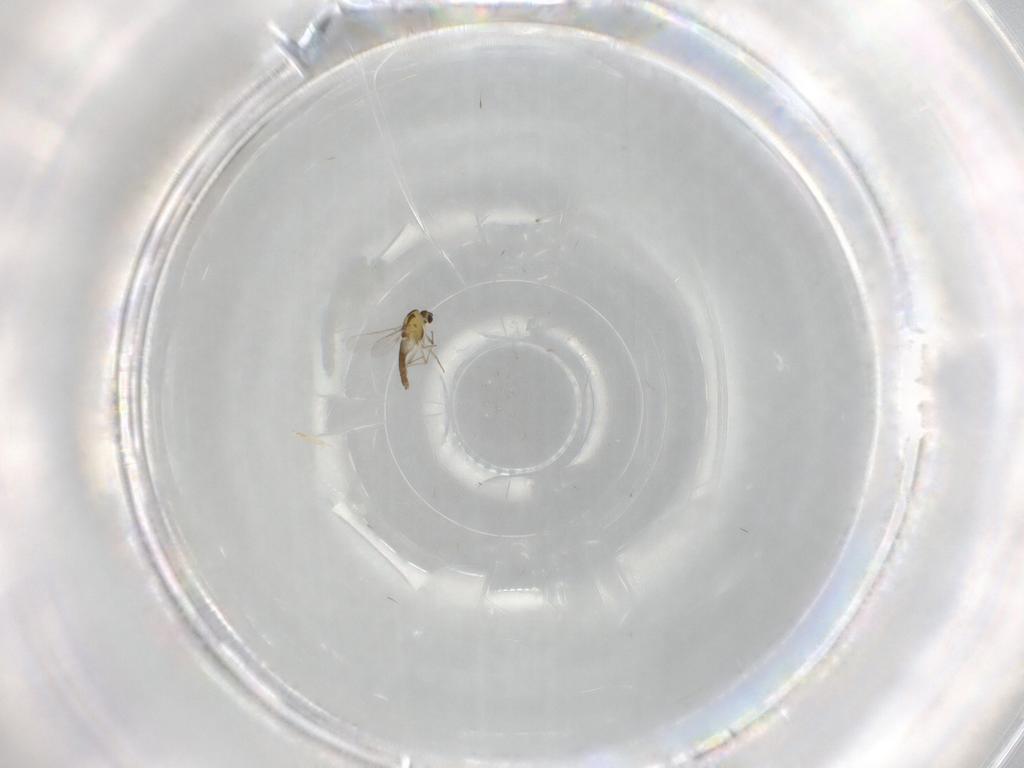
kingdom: Animalia
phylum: Arthropoda
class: Insecta
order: Diptera
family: Chironomidae
